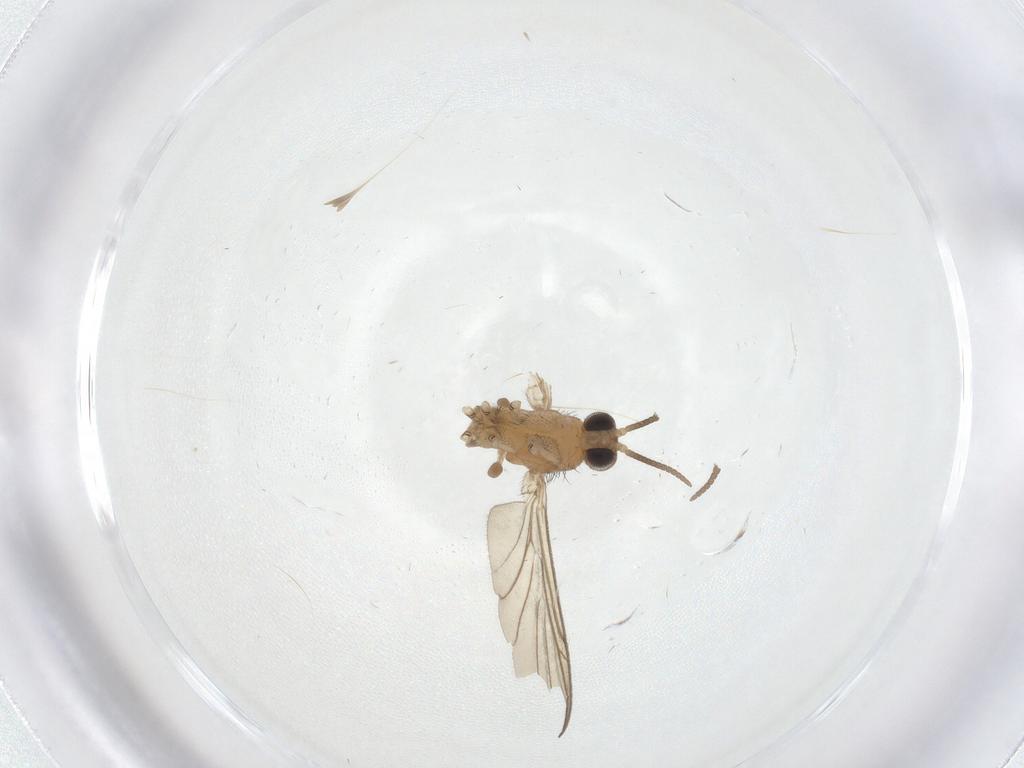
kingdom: Animalia
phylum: Arthropoda
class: Insecta
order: Diptera
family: Keroplatidae
